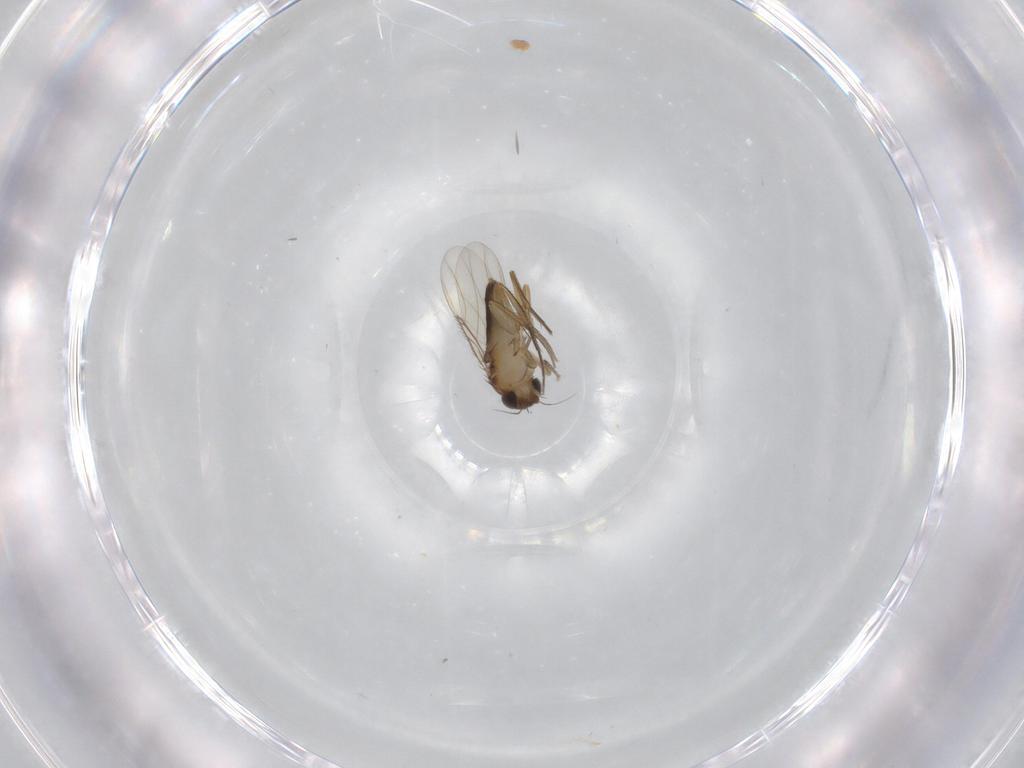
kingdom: Animalia
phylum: Arthropoda
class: Insecta
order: Diptera
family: Phoridae
